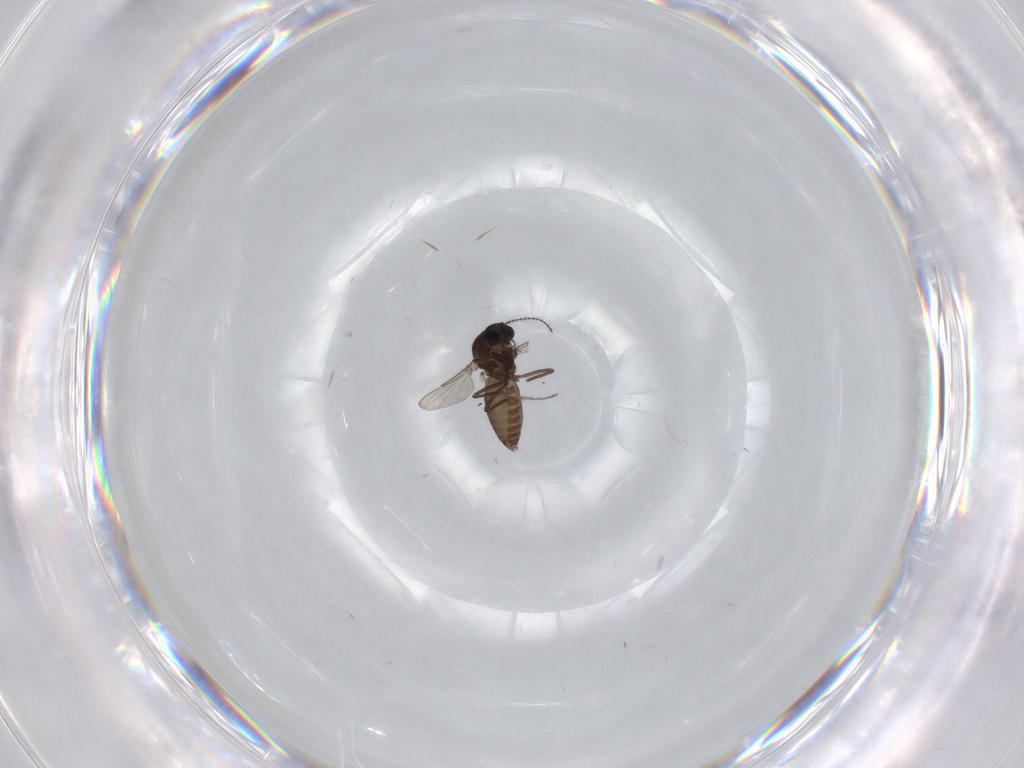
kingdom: Animalia
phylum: Arthropoda
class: Insecta
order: Diptera
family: Ceratopogonidae
